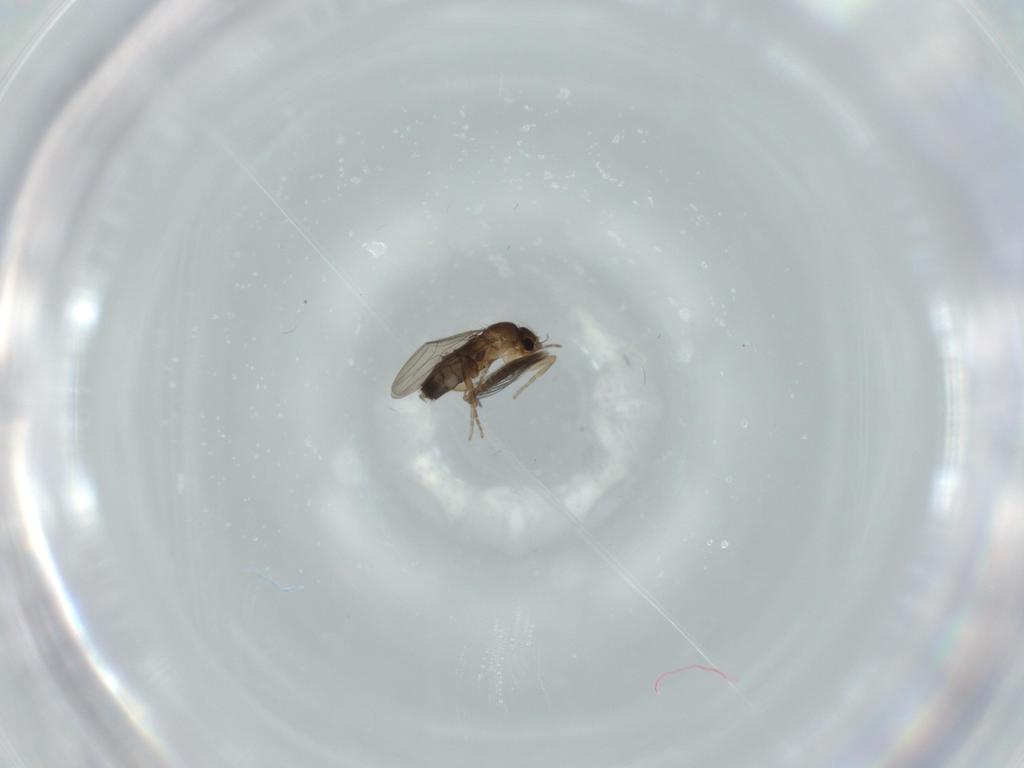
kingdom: Animalia
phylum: Arthropoda
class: Insecta
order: Diptera
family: Ceratopogonidae
